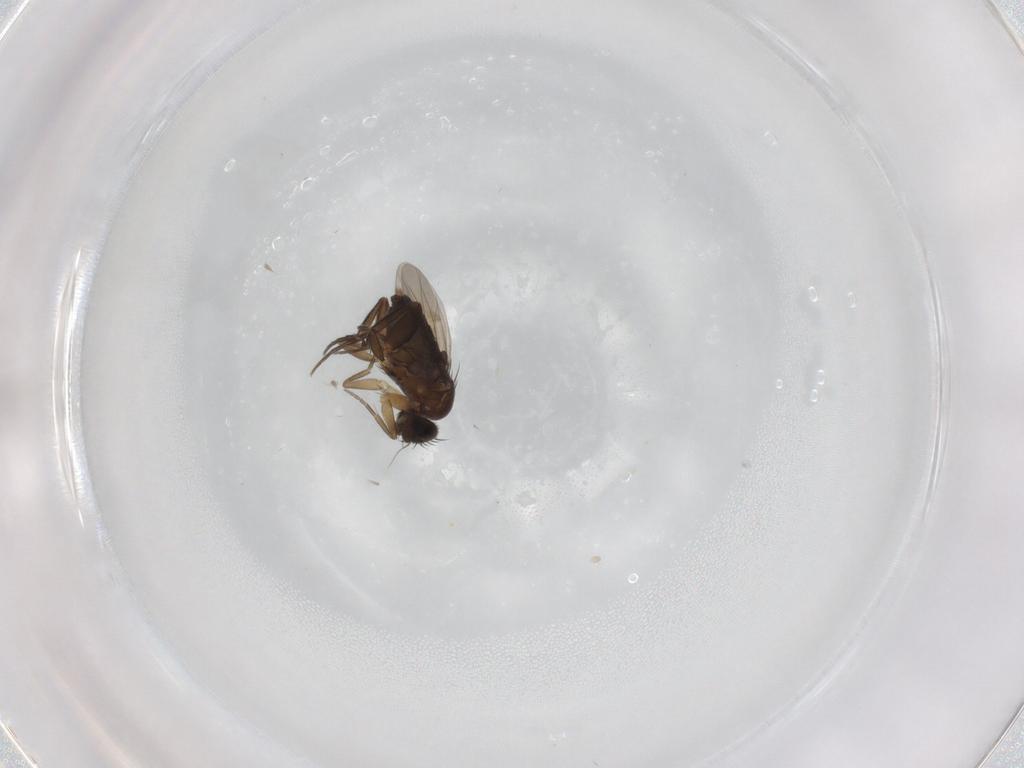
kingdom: Animalia
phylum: Arthropoda
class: Insecta
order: Diptera
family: Phoridae
